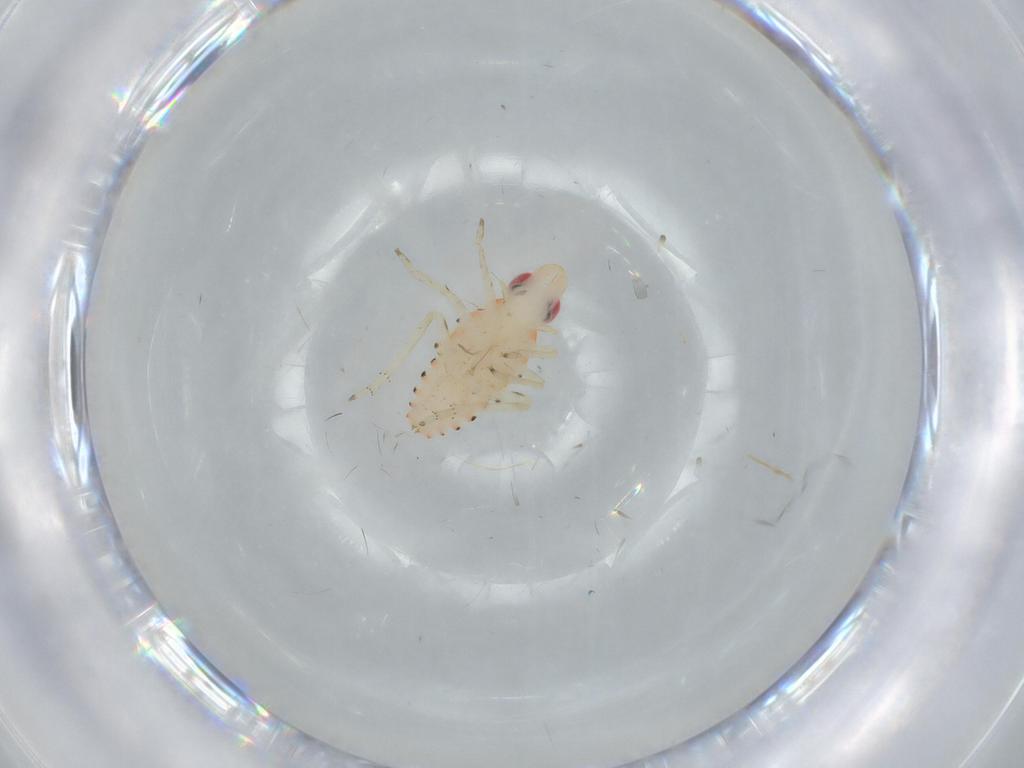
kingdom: Animalia
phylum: Arthropoda
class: Insecta
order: Hemiptera
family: Tropiduchidae
